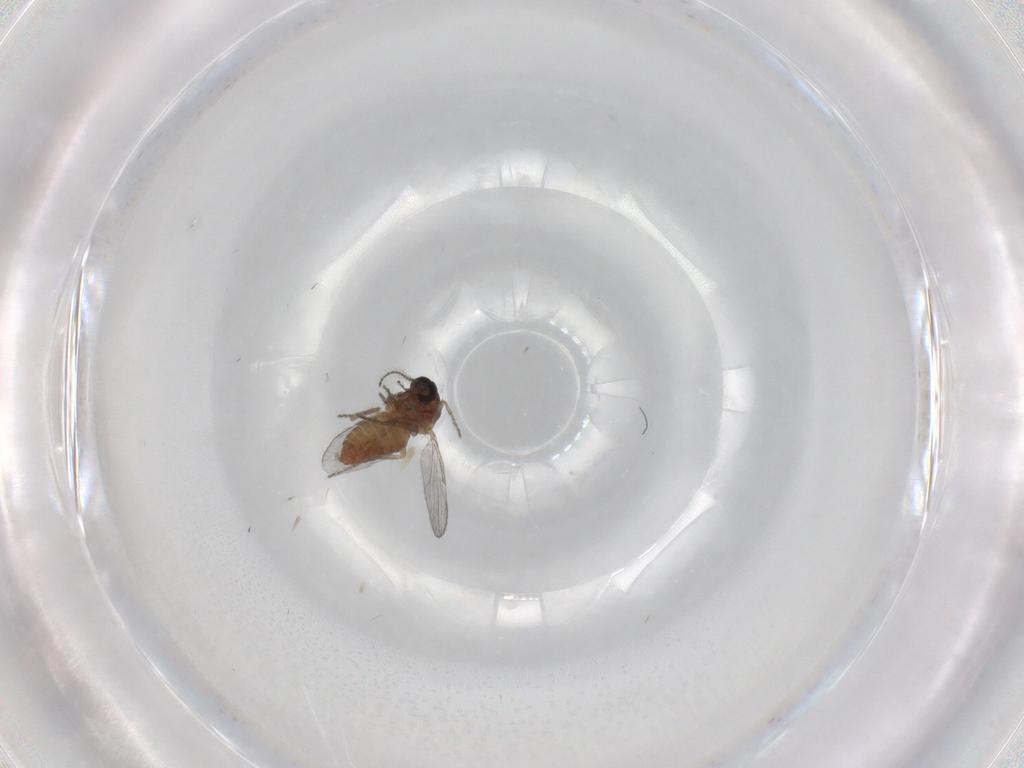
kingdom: Animalia
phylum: Arthropoda
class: Insecta
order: Diptera
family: Ceratopogonidae
